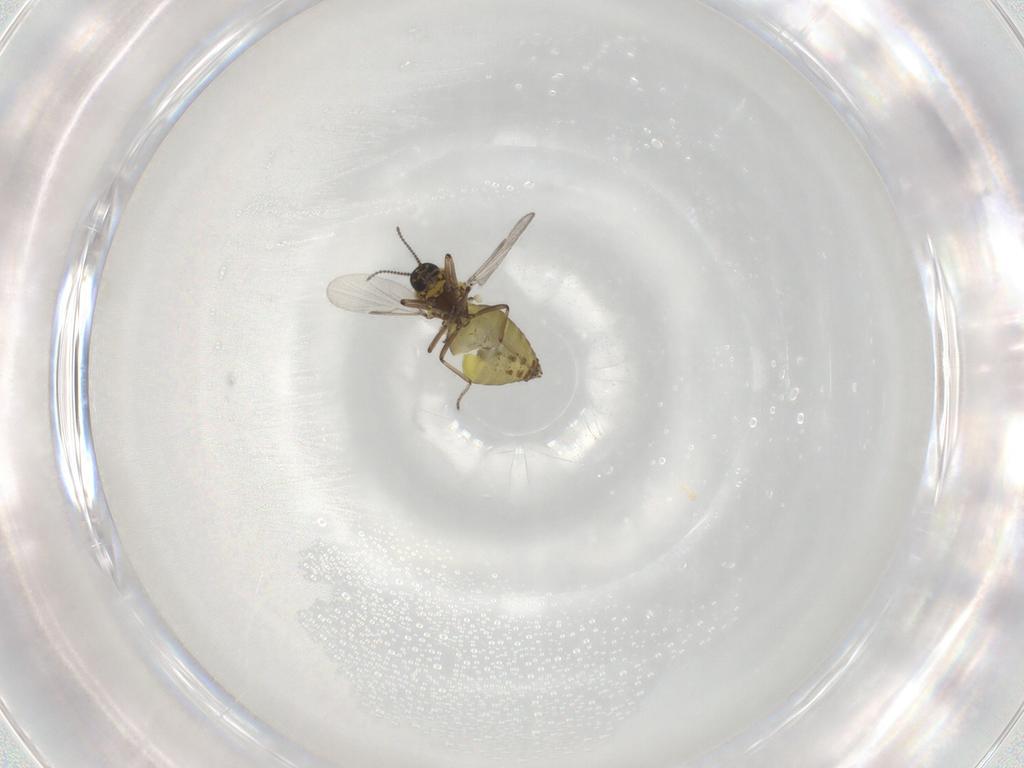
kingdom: Animalia
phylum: Arthropoda
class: Insecta
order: Diptera
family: Ceratopogonidae
